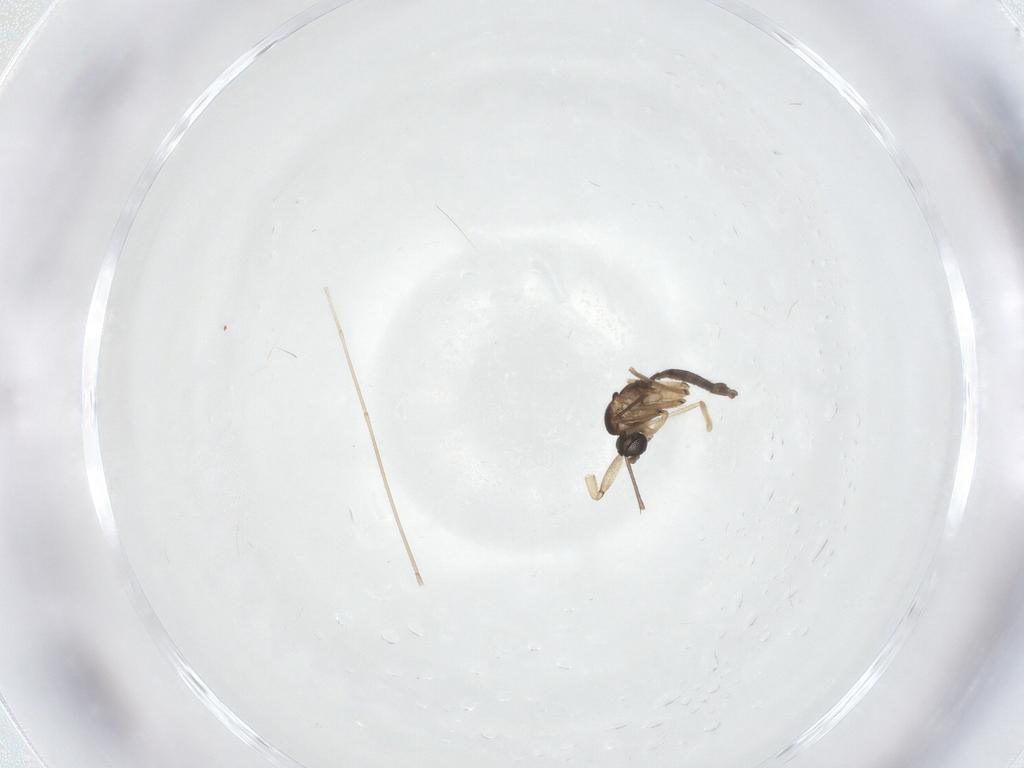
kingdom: Animalia
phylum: Arthropoda
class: Insecta
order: Diptera
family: Sciaridae
